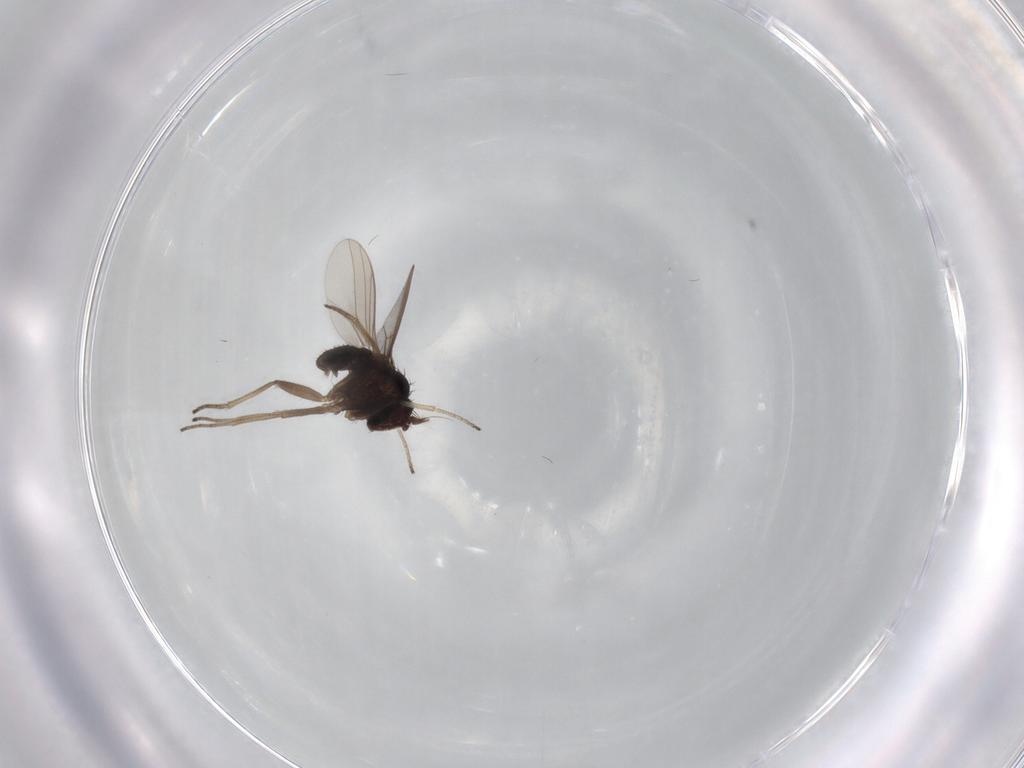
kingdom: Animalia
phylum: Arthropoda
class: Insecta
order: Diptera
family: Dolichopodidae
